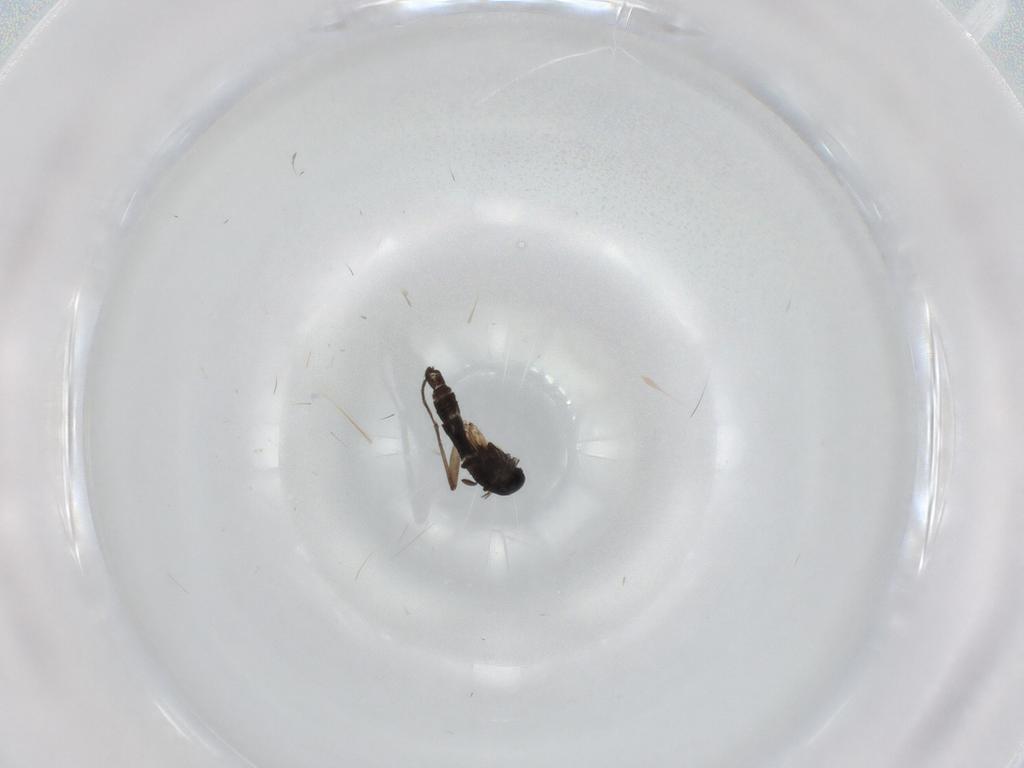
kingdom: Animalia
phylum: Arthropoda
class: Insecta
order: Diptera
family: Sciaridae
